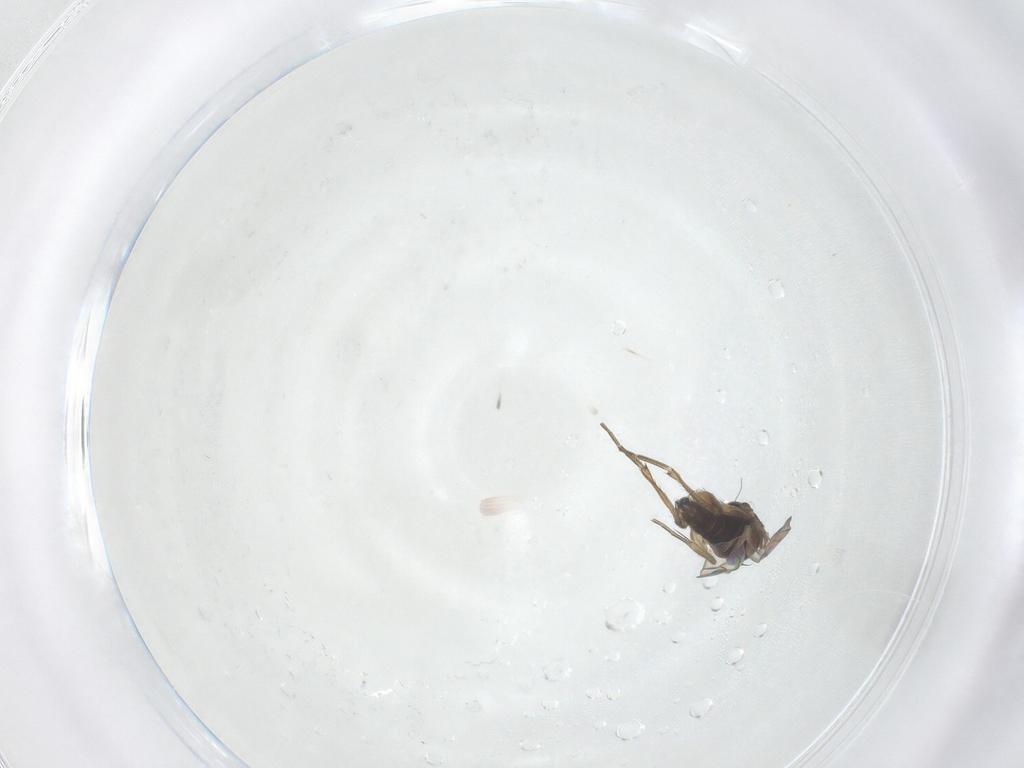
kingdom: Animalia
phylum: Arthropoda
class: Insecta
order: Diptera
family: Phoridae
